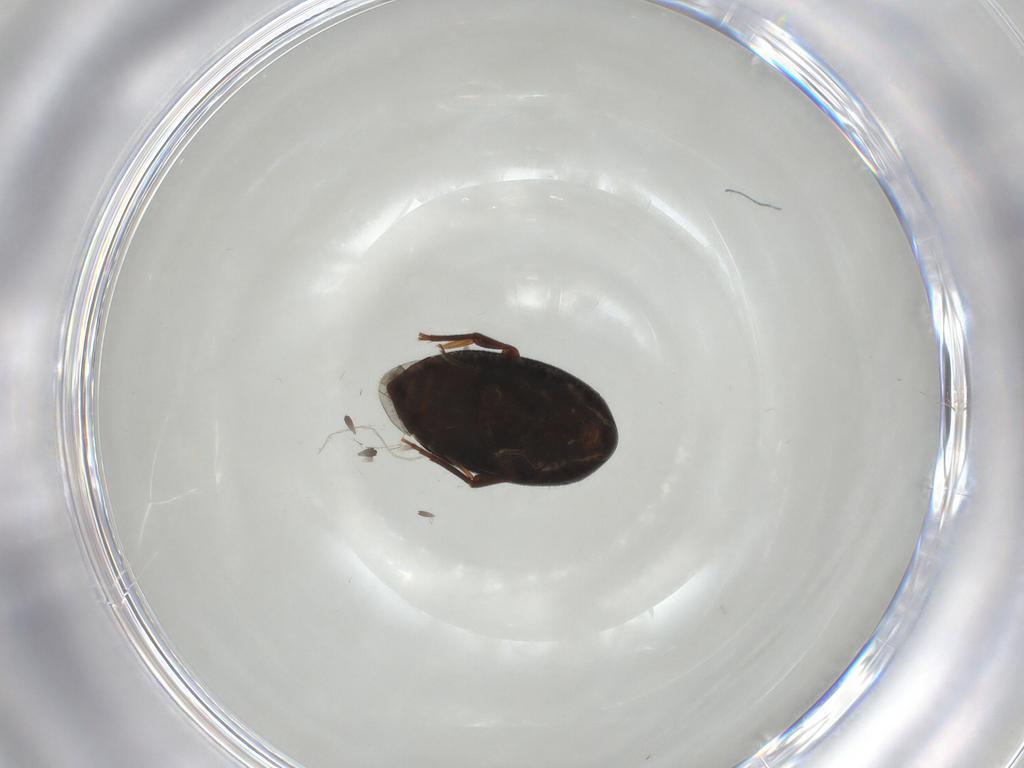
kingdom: Animalia
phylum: Arthropoda
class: Insecta
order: Coleoptera
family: Melandryidae
